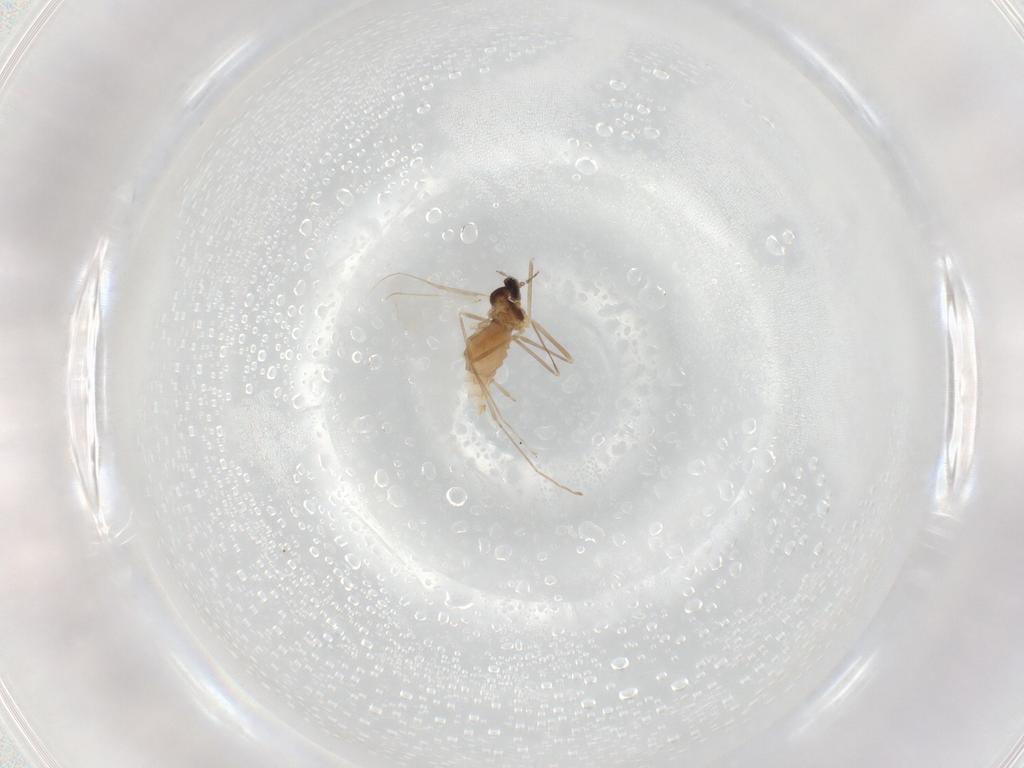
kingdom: Animalia
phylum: Arthropoda
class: Insecta
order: Diptera
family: Cecidomyiidae
